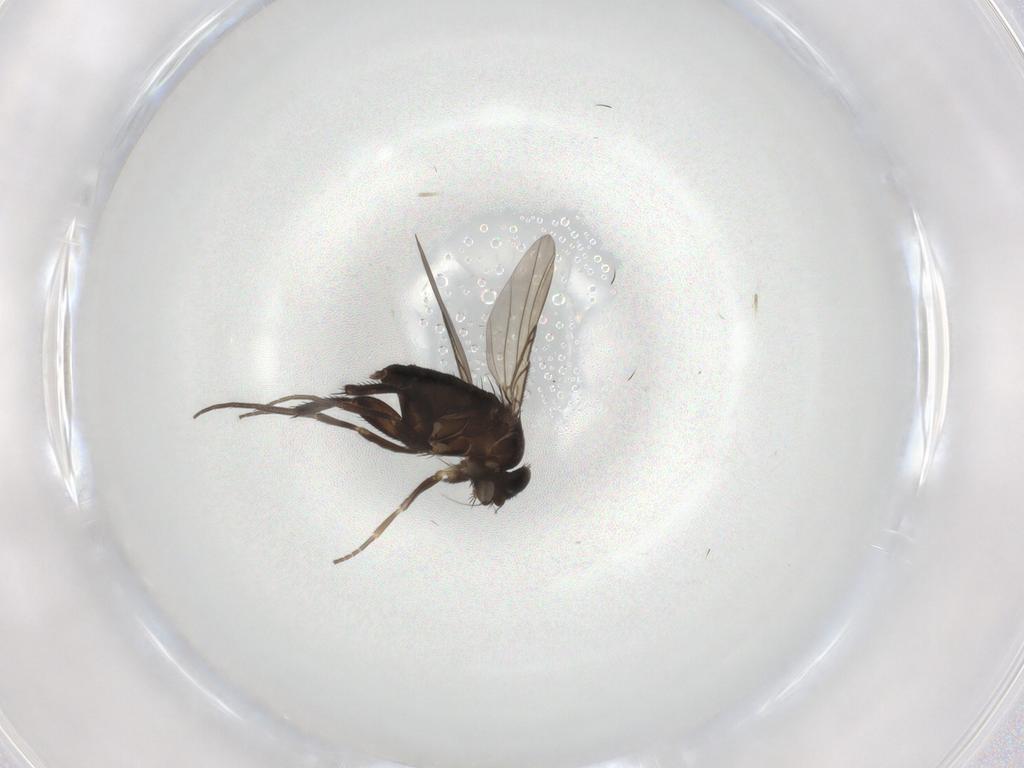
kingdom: Animalia
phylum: Arthropoda
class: Insecta
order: Diptera
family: Phoridae
